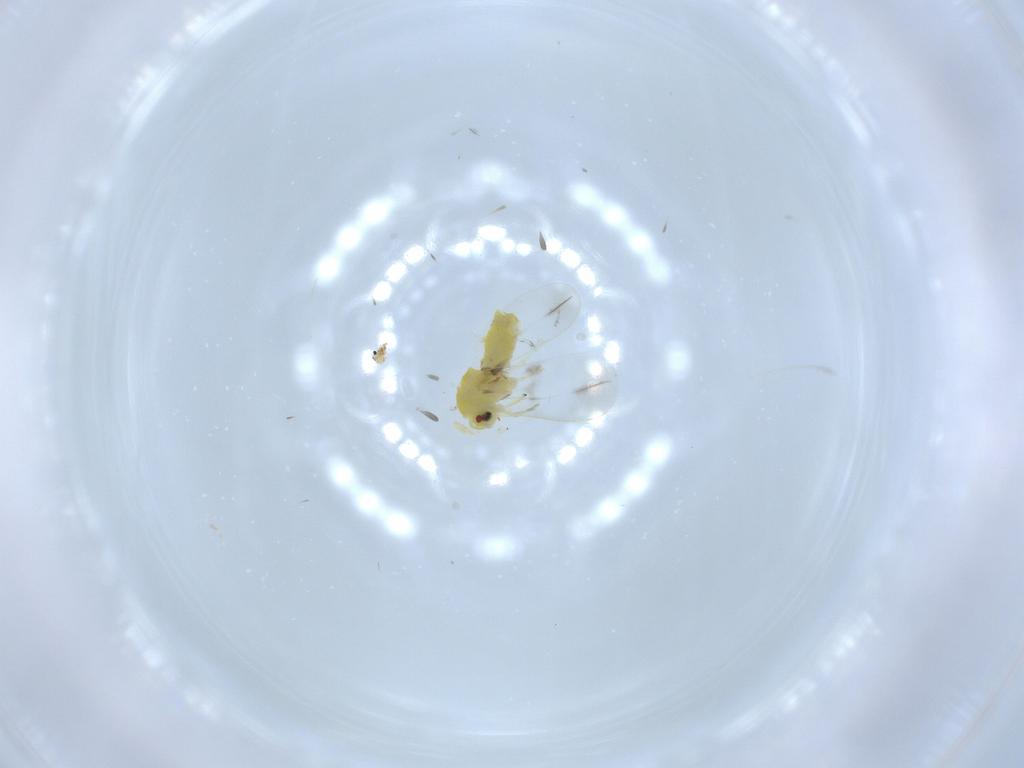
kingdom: Animalia
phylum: Arthropoda
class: Insecta
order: Hemiptera
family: Aleyrodidae
